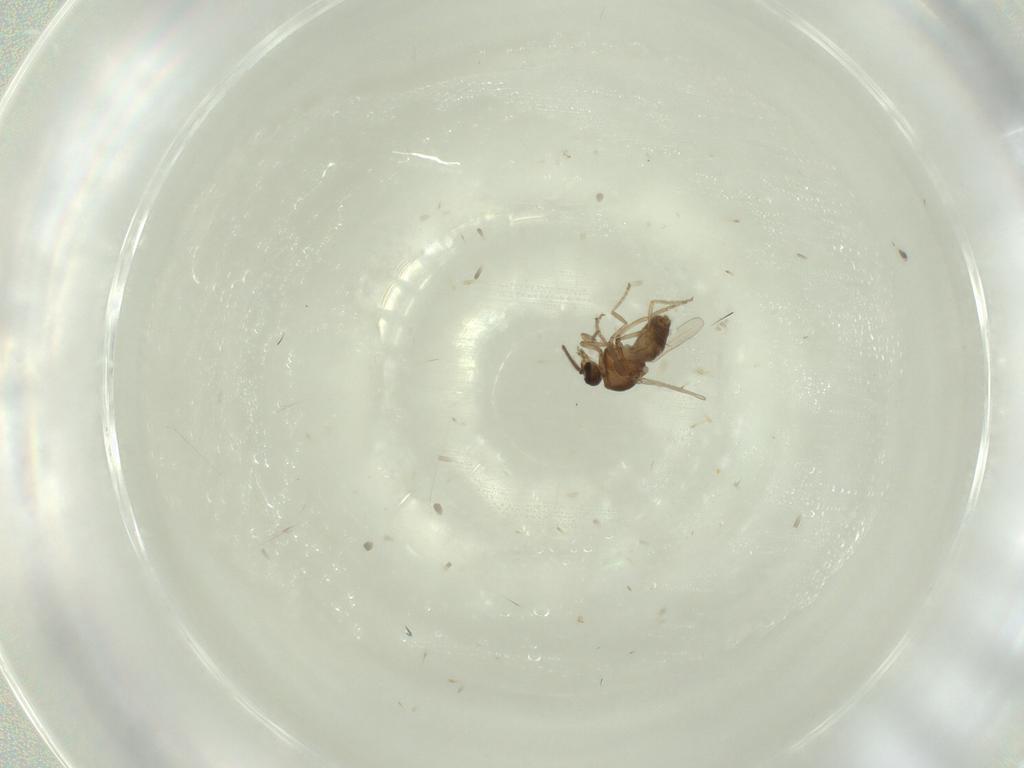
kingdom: Animalia
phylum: Arthropoda
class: Insecta
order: Diptera
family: Ceratopogonidae
